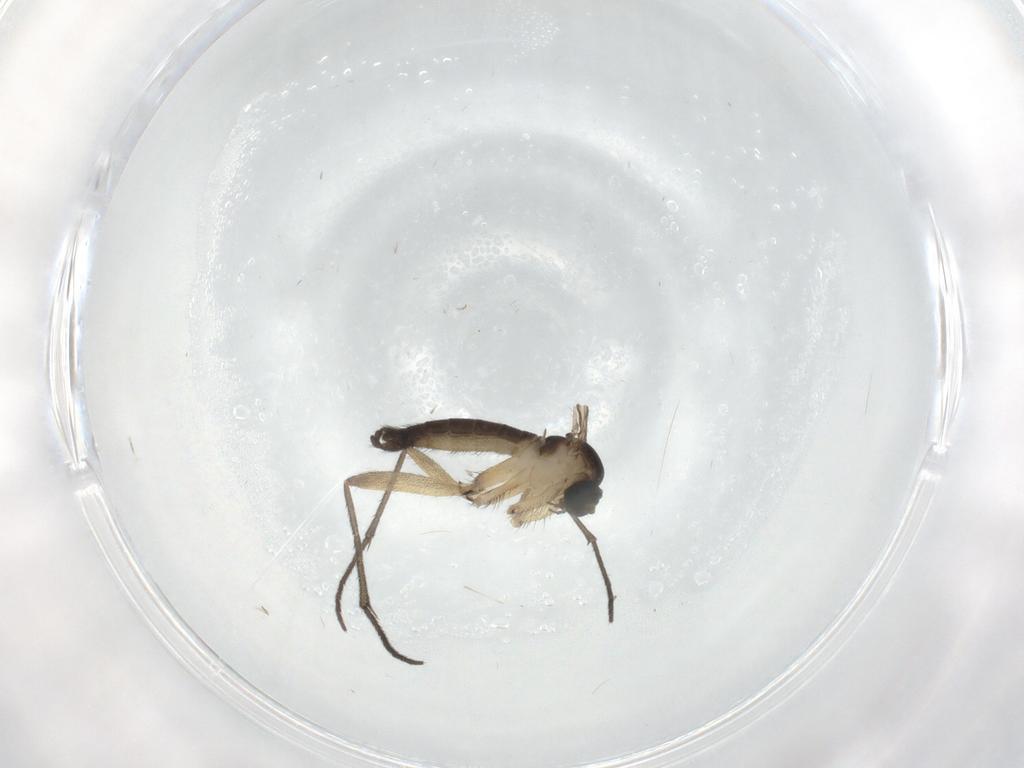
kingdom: Animalia
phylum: Arthropoda
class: Insecta
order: Diptera
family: Sciaridae
